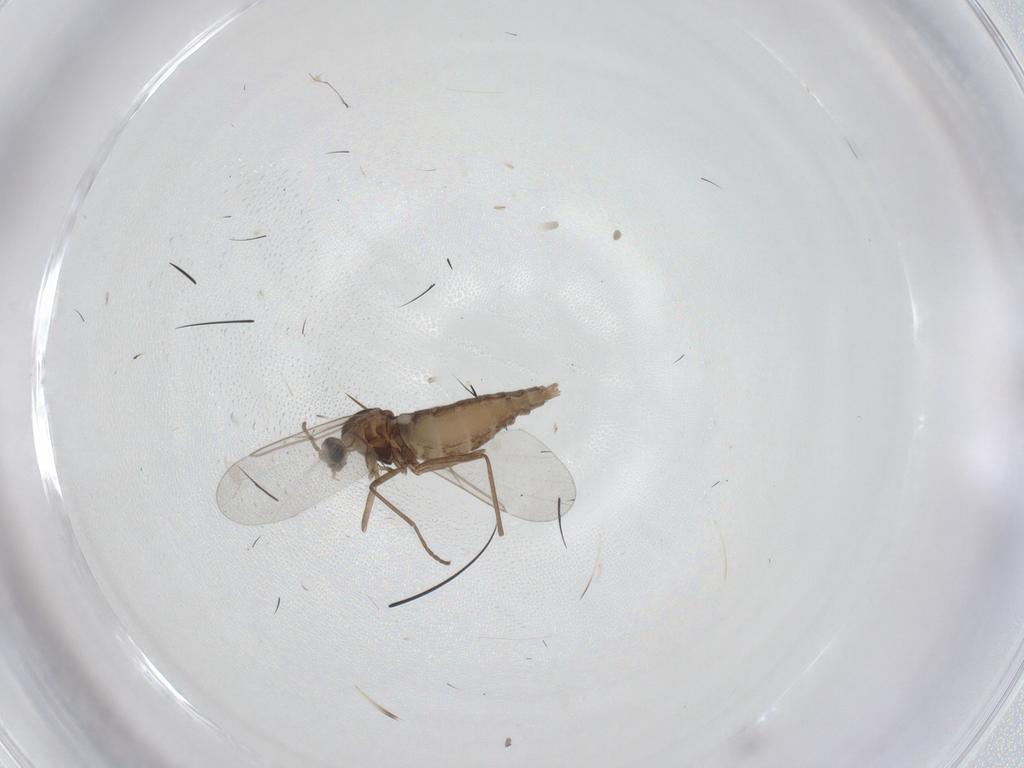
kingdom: Animalia
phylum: Arthropoda
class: Insecta
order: Diptera
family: Cecidomyiidae
